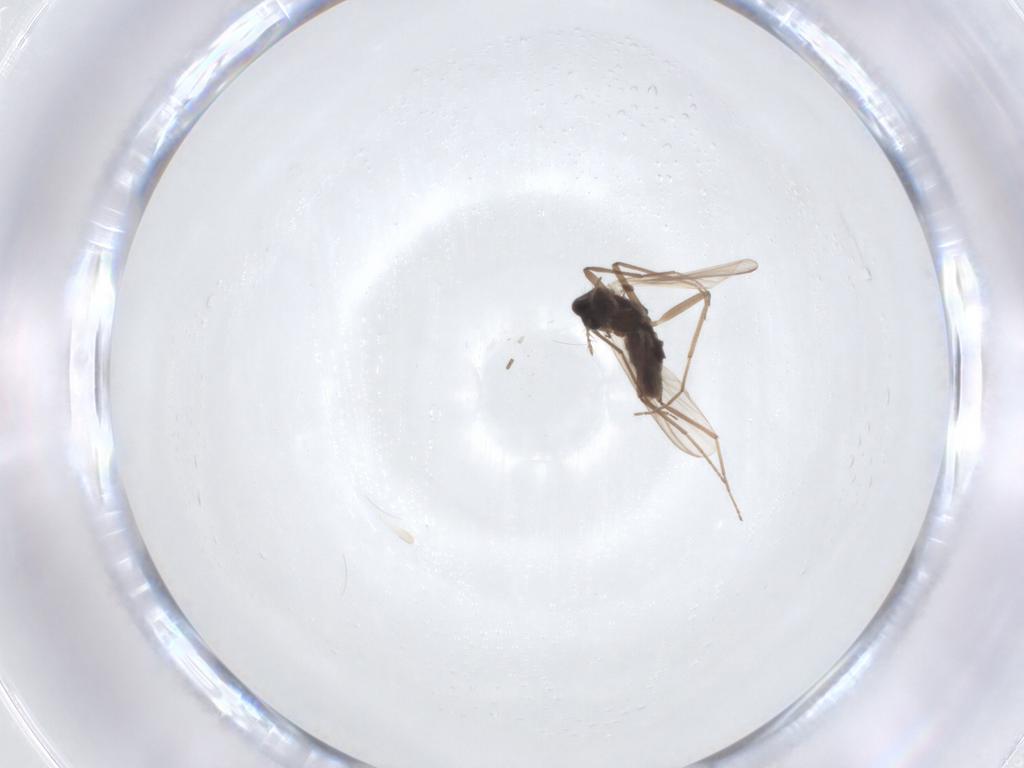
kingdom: Animalia
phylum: Arthropoda
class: Insecta
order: Diptera
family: Chironomidae
